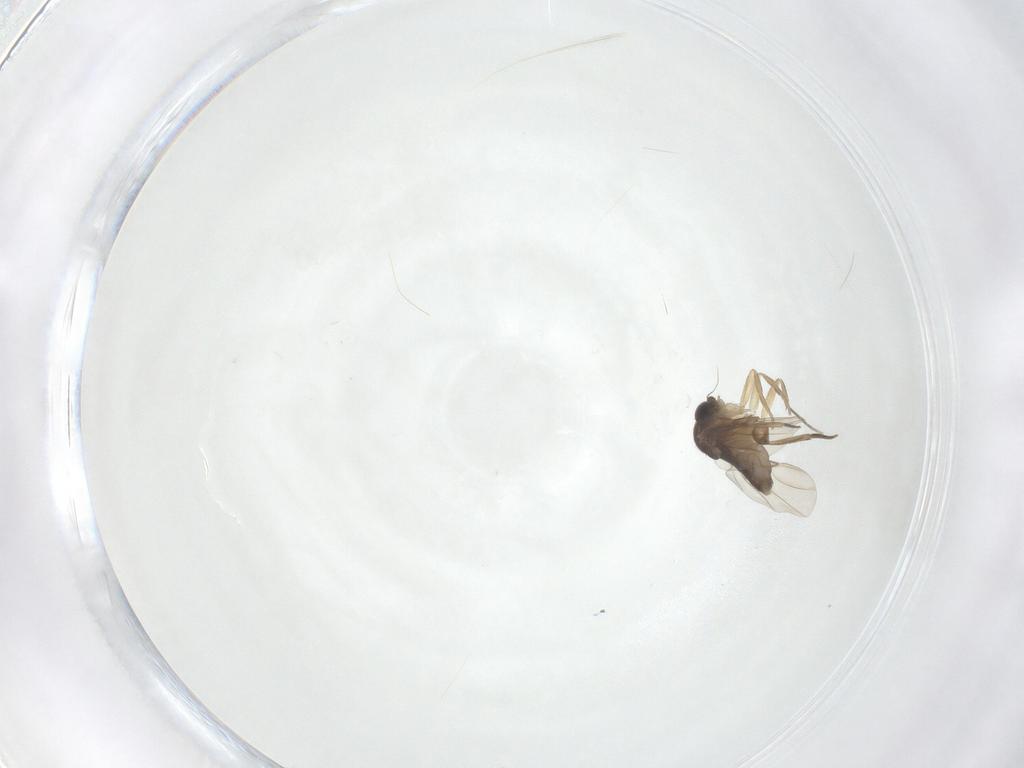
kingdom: Animalia
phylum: Arthropoda
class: Insecta
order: Diptera
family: Phoridae
